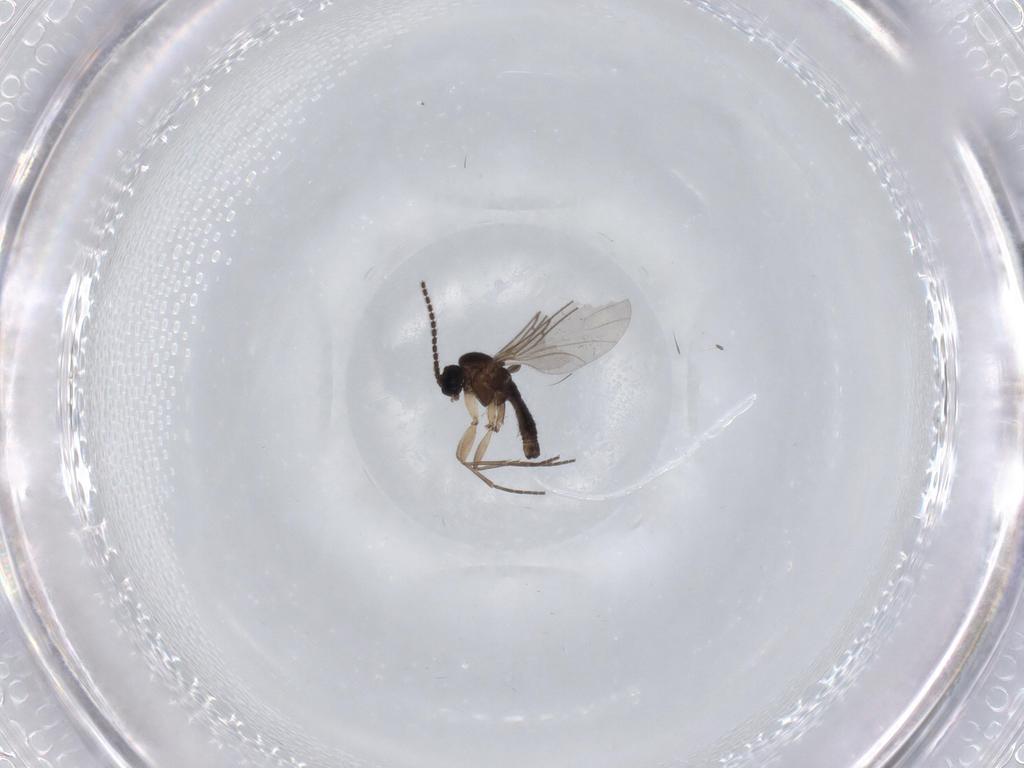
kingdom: Animalia
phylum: Arthropoda
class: Insecta
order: Diptera
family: Sciaridae
